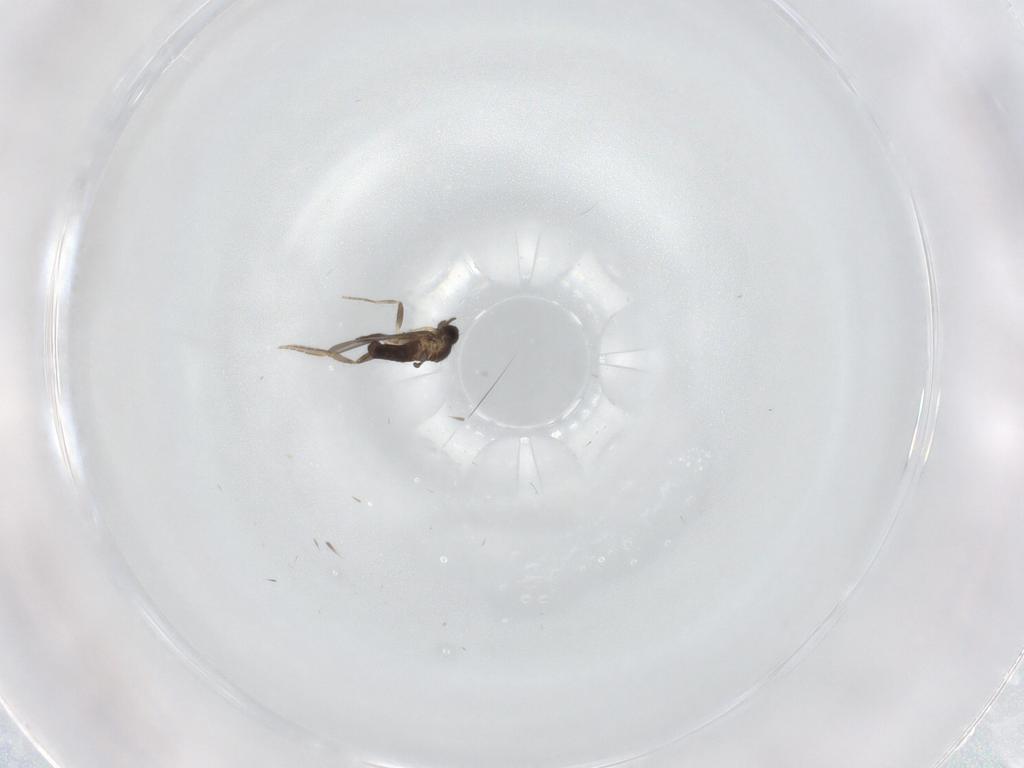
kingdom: Animalia
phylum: Arthropoda
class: Insecta
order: Diptera
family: Phoridae
